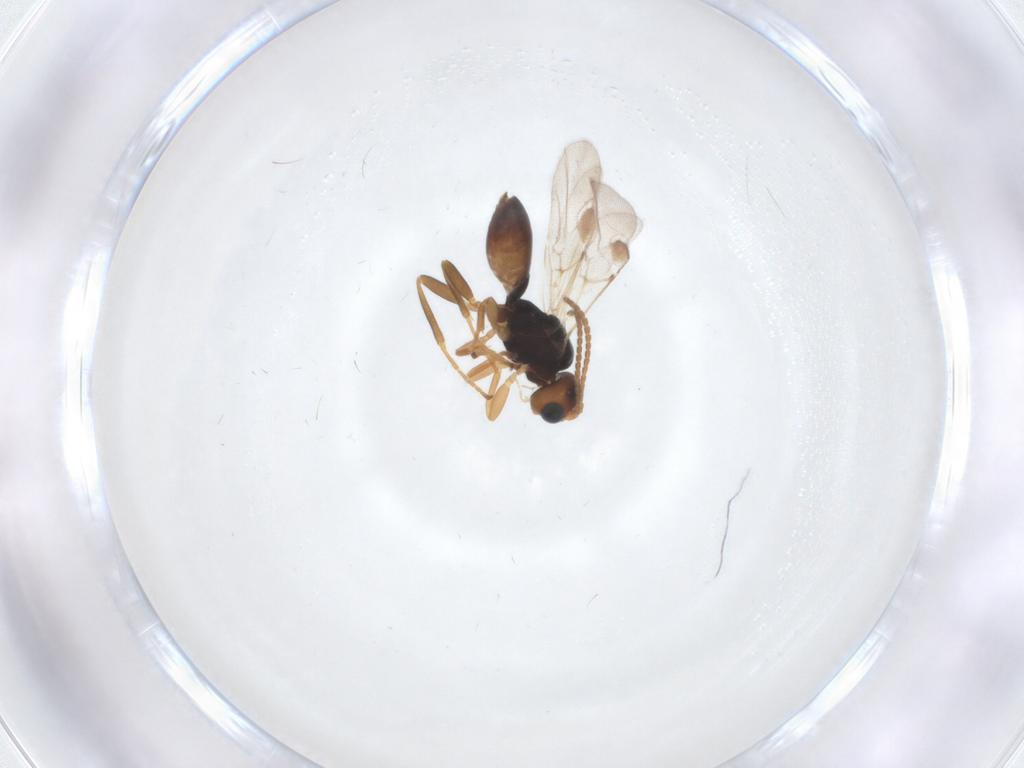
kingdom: Animalia
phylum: Arthropoda
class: Insecta
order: Hymenoptera
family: Braconidae
